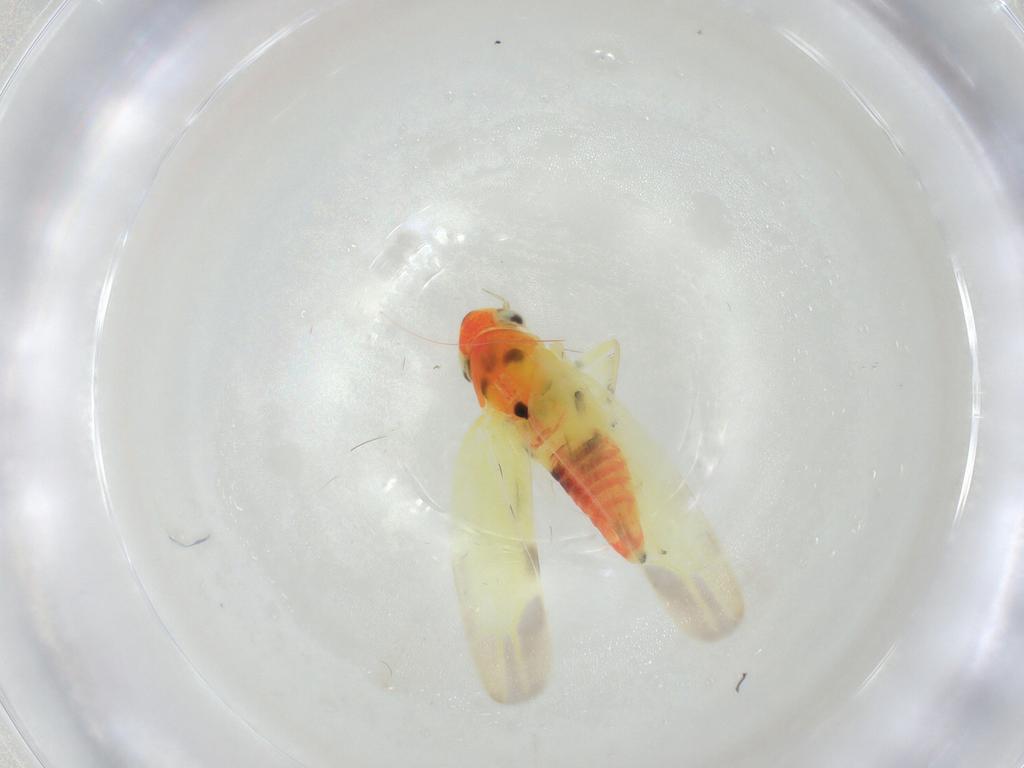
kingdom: Animalia
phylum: Arthropoda
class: Insecta
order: Hemiptera
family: Cicadellidae
